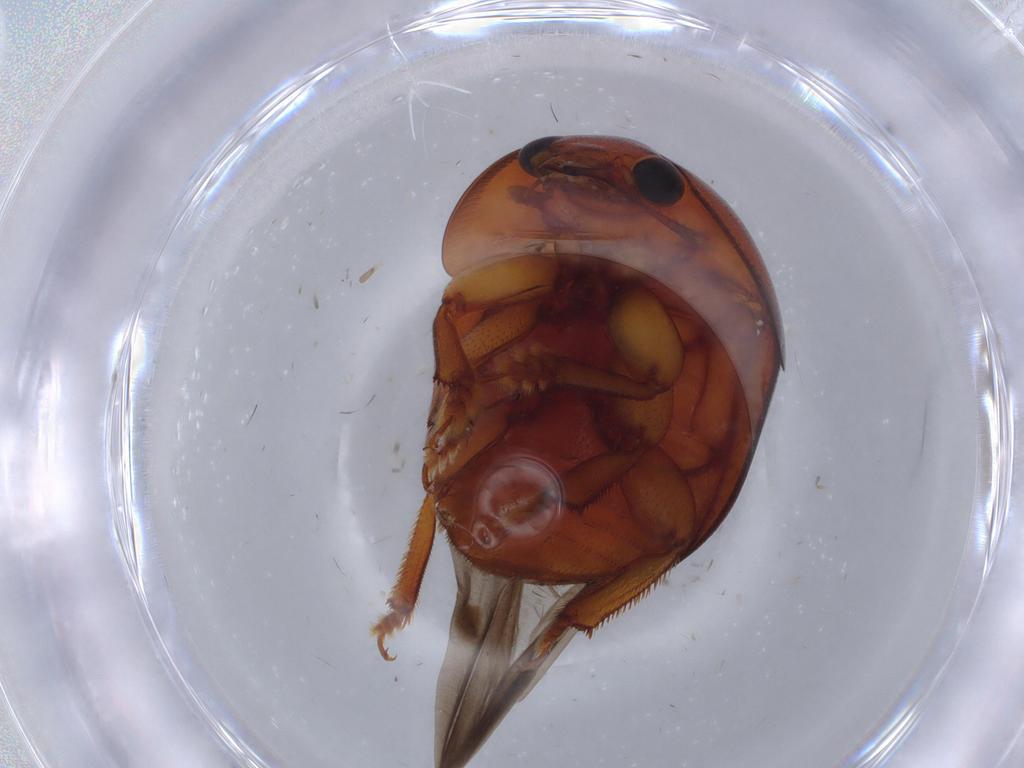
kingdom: Animalia
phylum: Arthropoda
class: Insecta
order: Coleoptera
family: Nitidulidae
